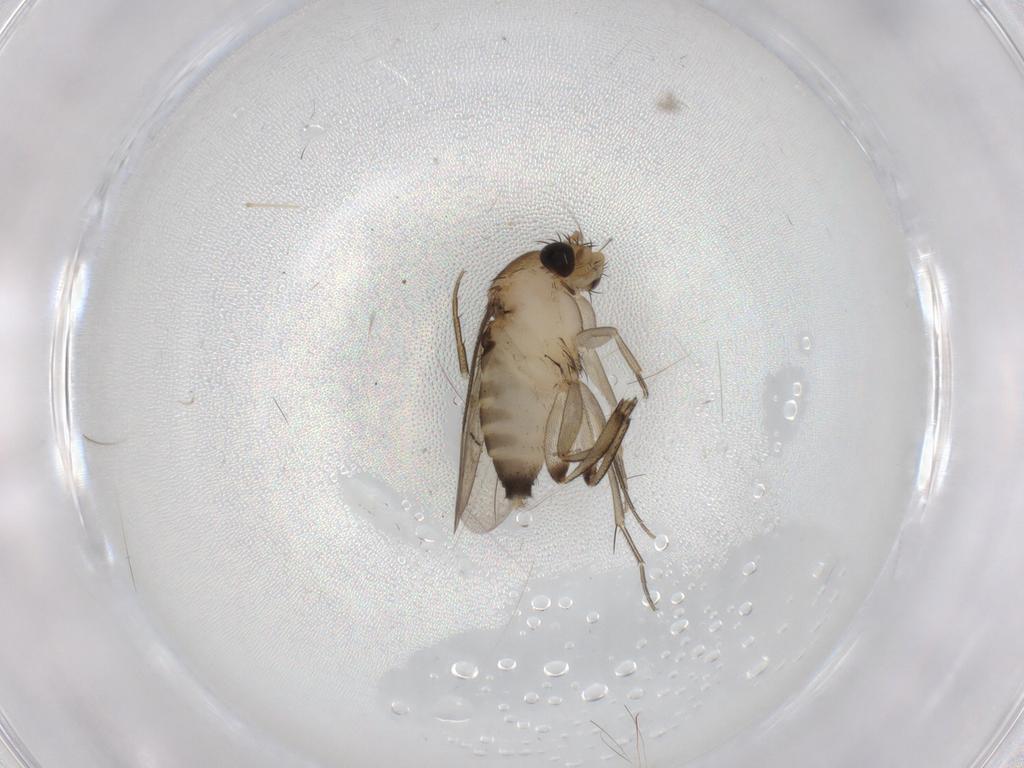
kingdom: Animalia
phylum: Arthropoda
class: Insecta
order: Diptera
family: Phoridae
